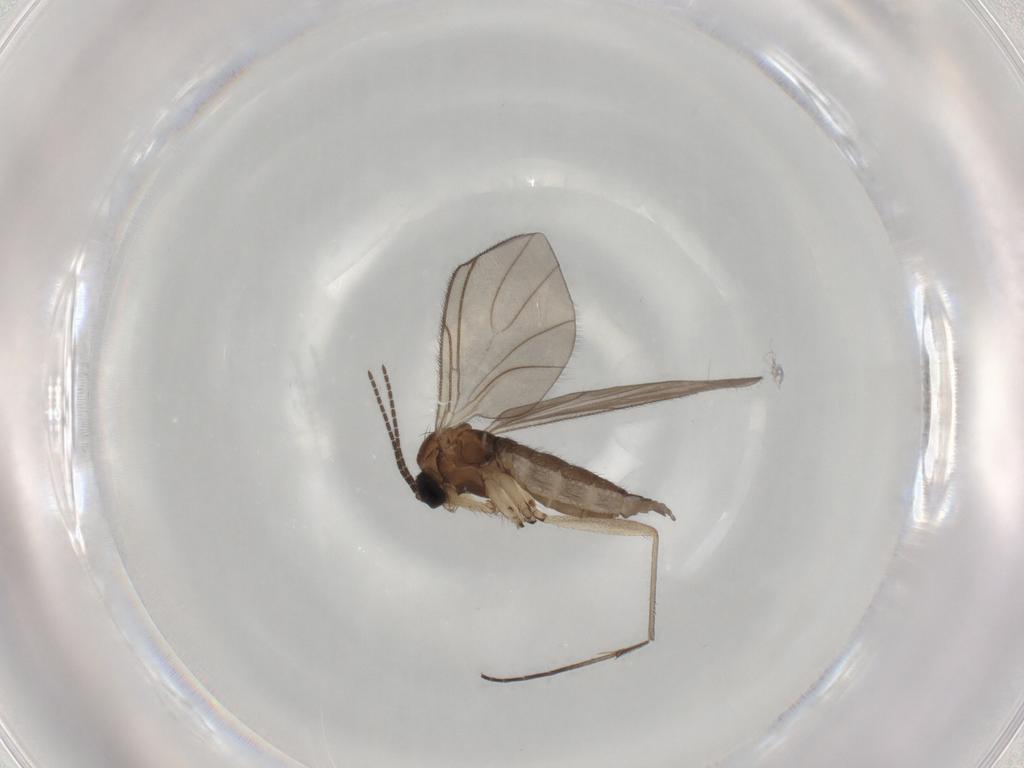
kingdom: Animalia
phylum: Arthropoda
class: Insecta
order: Diptera
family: Sciaridae
